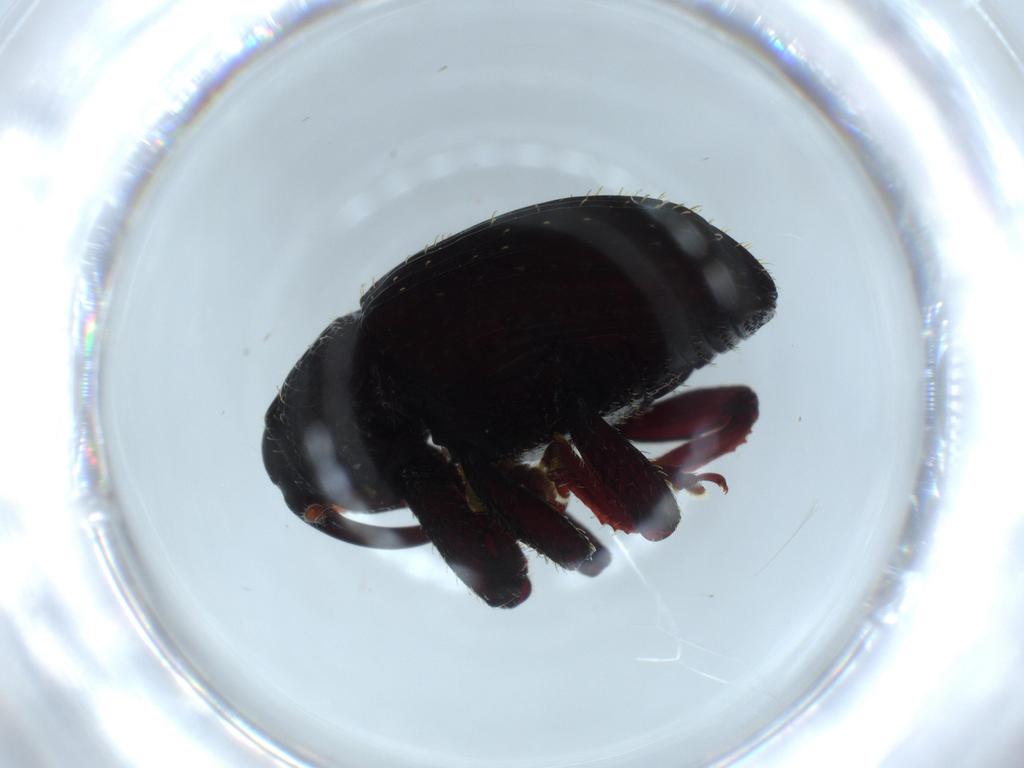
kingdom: Animalia
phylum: Arthropoda
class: Insecta
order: Coleoptera
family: Curculionidae
